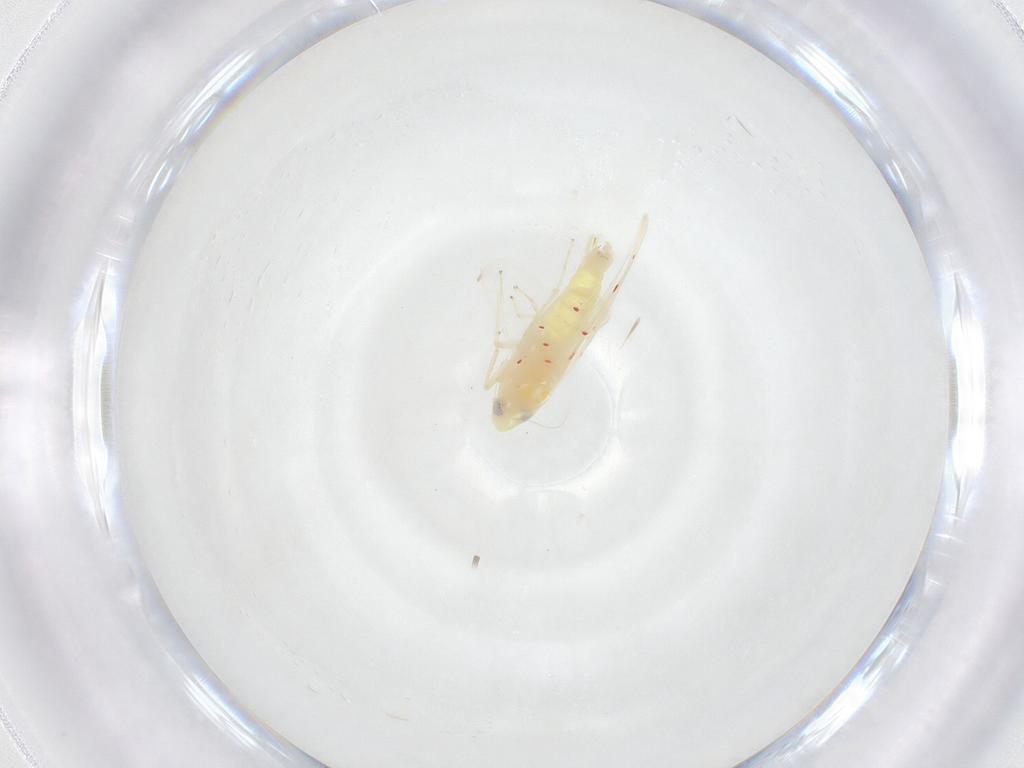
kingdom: Animalia
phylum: Arthropoda
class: Insecta
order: Hemiptera
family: Cicadellidae
